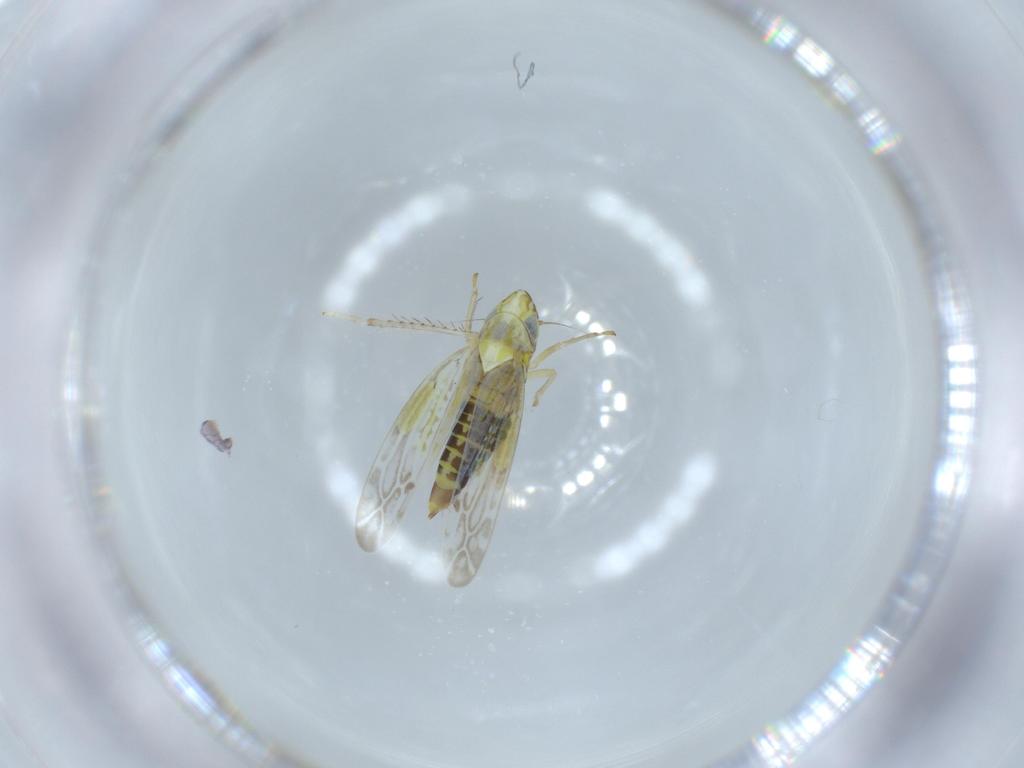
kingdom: Animalia
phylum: Arthropoda
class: Insecta
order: Hemiptera
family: Cicadellidae
